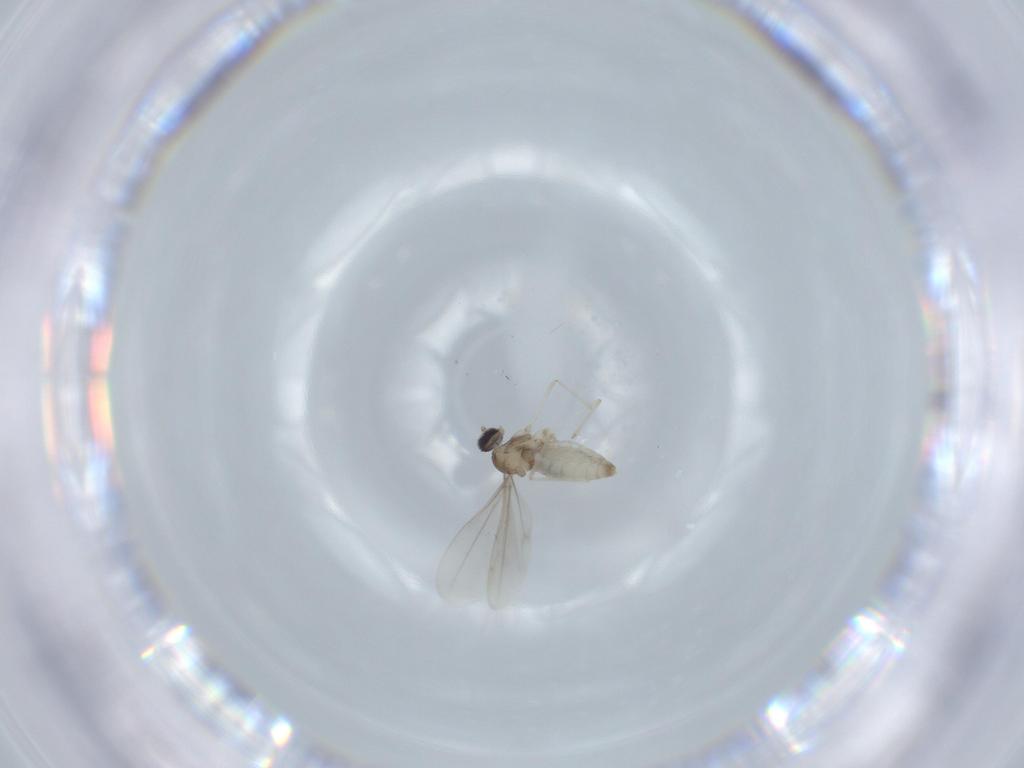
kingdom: Animalia
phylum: Arthropoda
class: Insecta
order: Diptera
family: Cecidomyiidae
